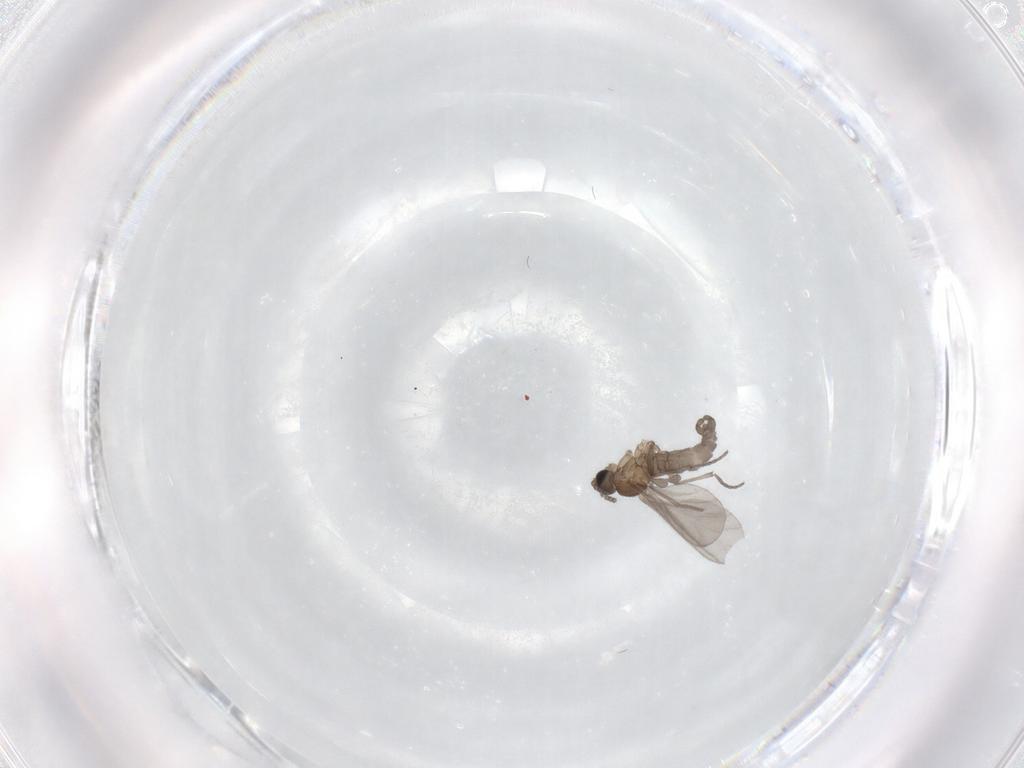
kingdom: Animalia
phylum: Arthropoda
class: Insecta
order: Diptera
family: Sciaridae
